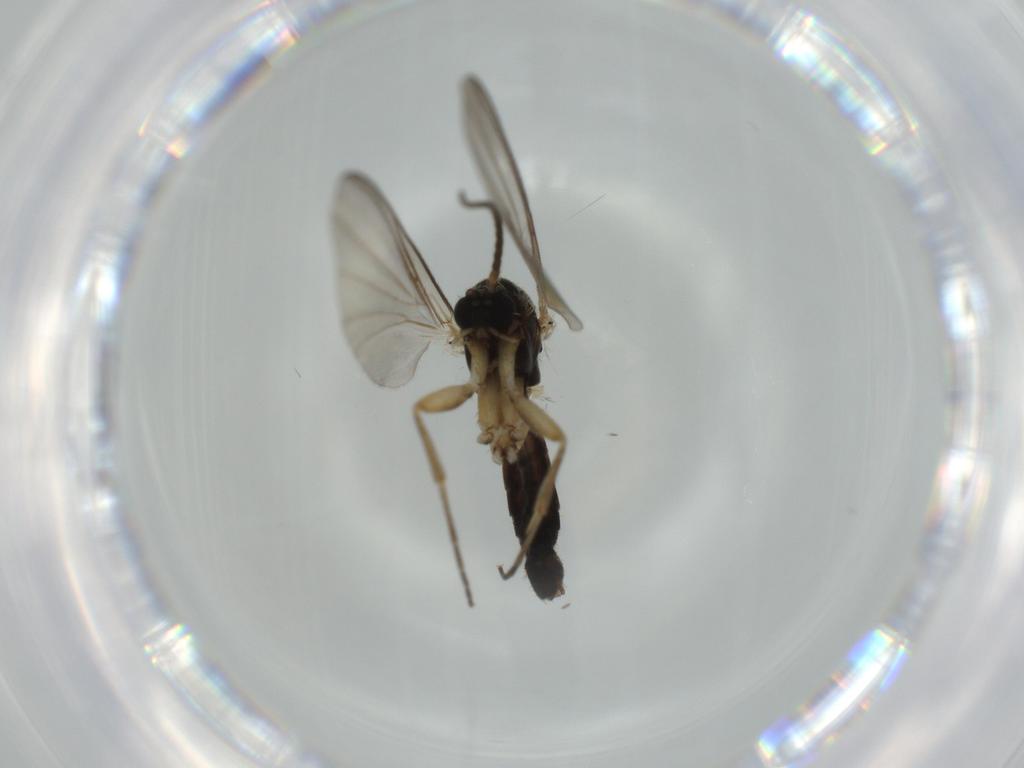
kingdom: Animalia
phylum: Arthropoda
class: Insecta
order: Diptera
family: Mycetophilidae
